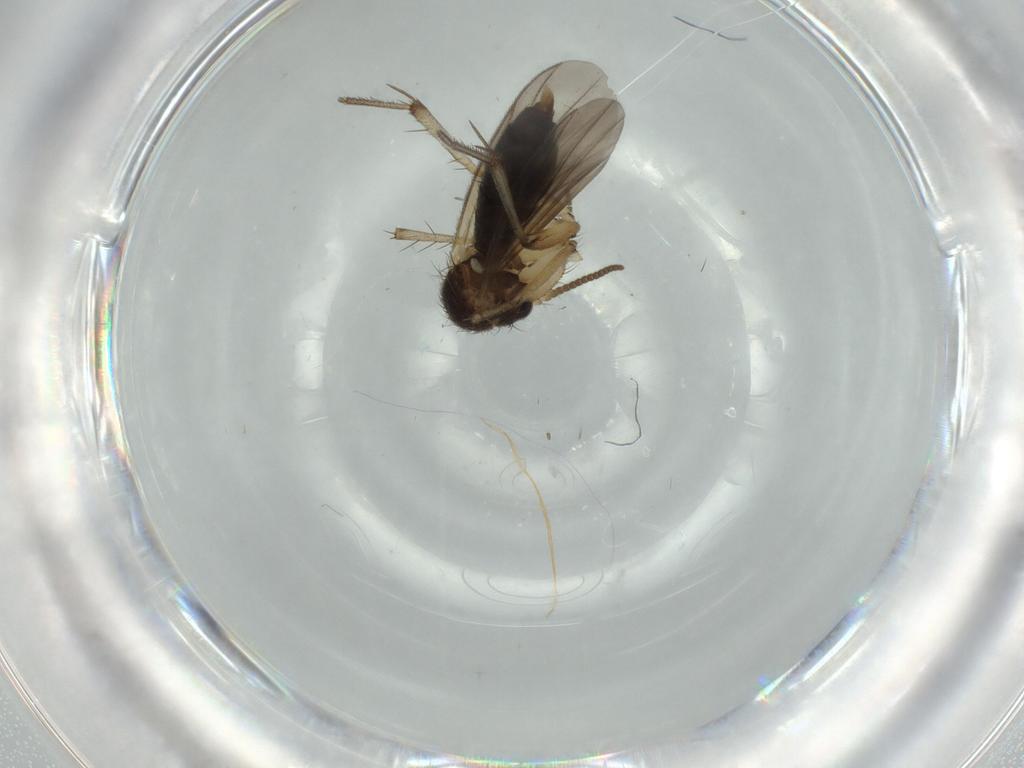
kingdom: Animalia
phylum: Arthropoda
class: Insecta
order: Diptera
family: Mycetophilidae
